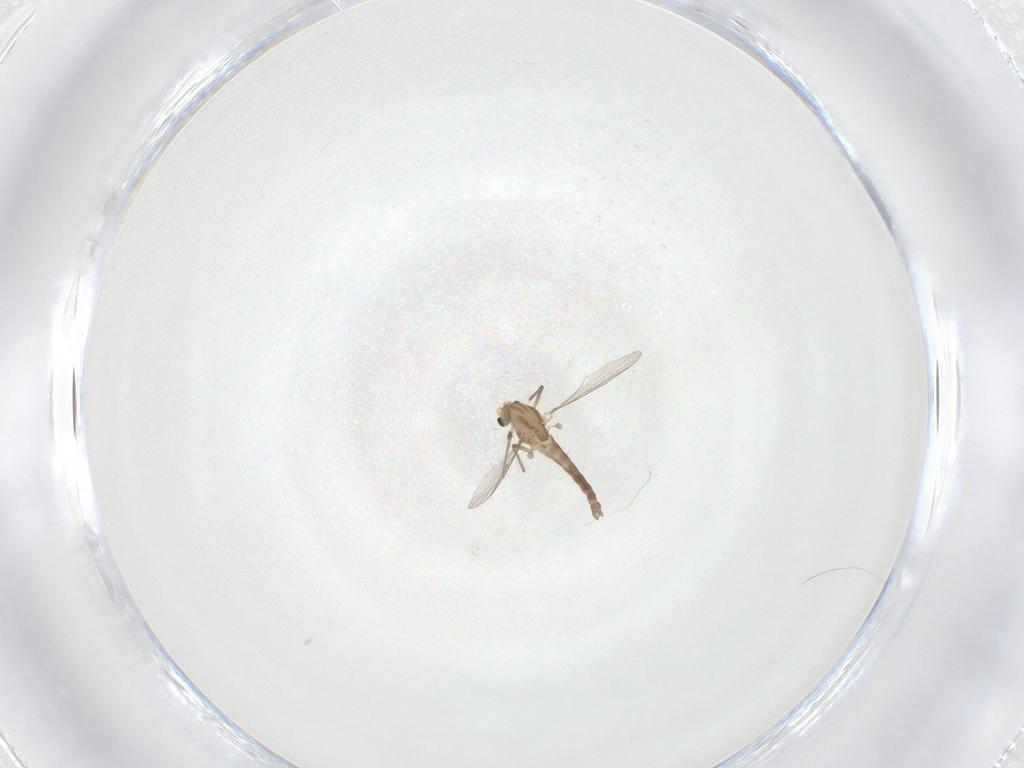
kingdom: Animalia
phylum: Arthropoda
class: Insecta
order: Diptera
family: Chironomidae
